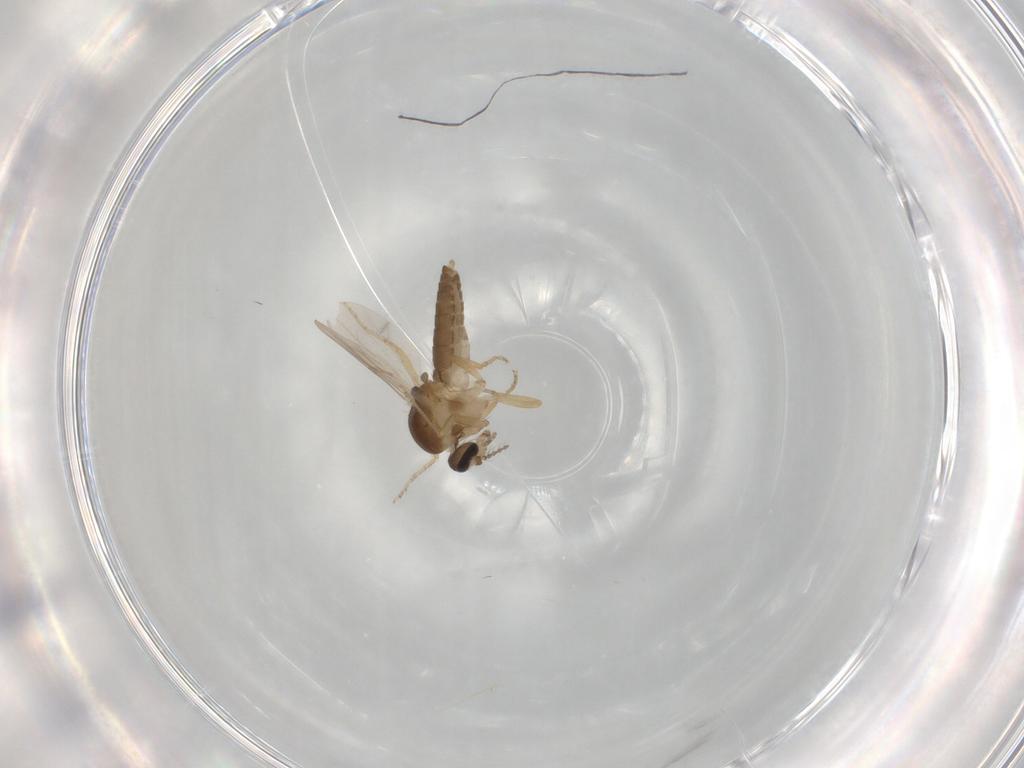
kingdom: Animalia
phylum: Arthropoda
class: Insecta
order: Diptera
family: Ceratopogonidae
